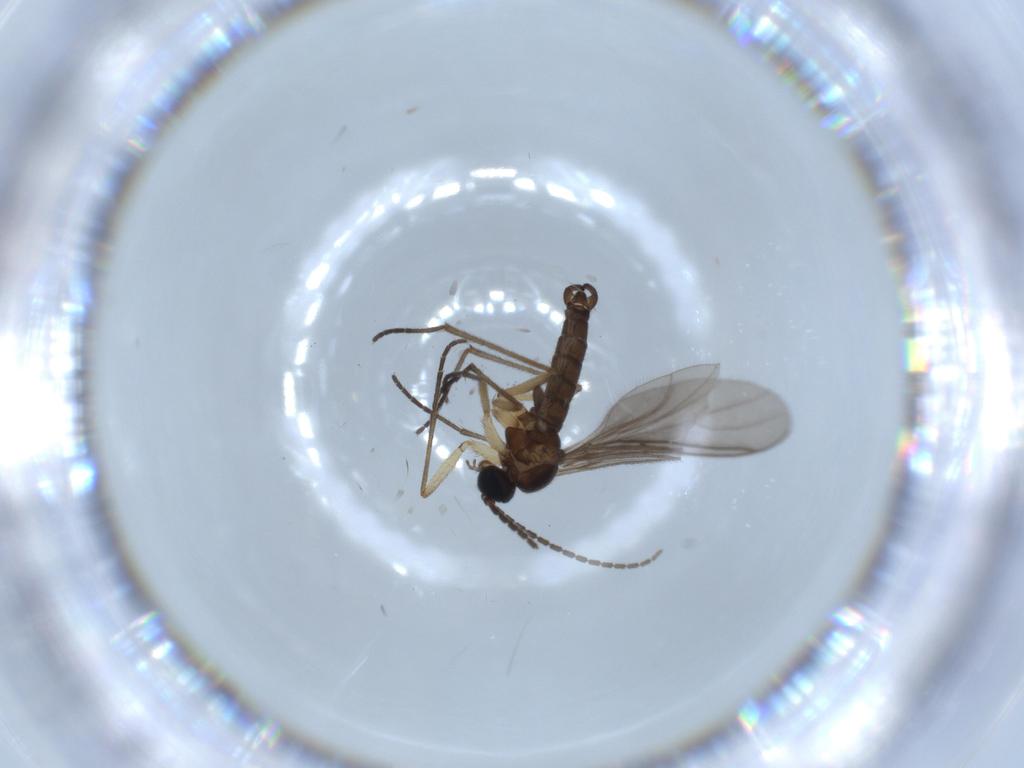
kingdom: Animalia
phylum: Arthropoda
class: Insecta
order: Diptera
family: Sciaridae
